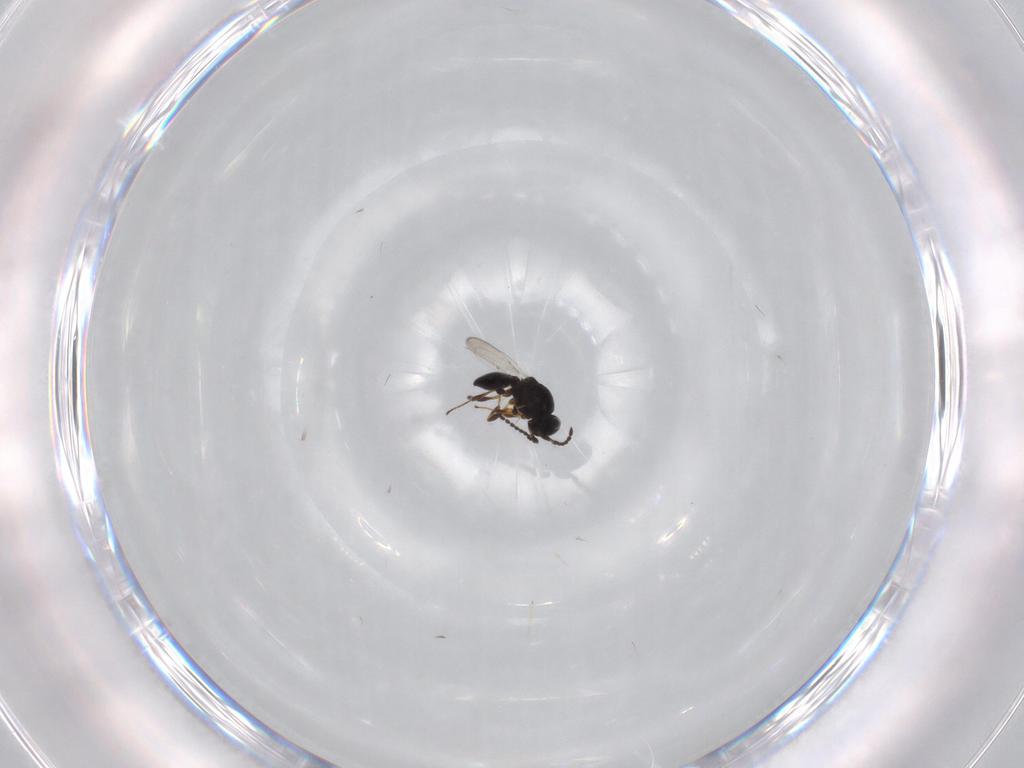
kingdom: Animalia
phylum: Arthropoda
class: Insecta
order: Hymenoptera
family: Platygastridae
